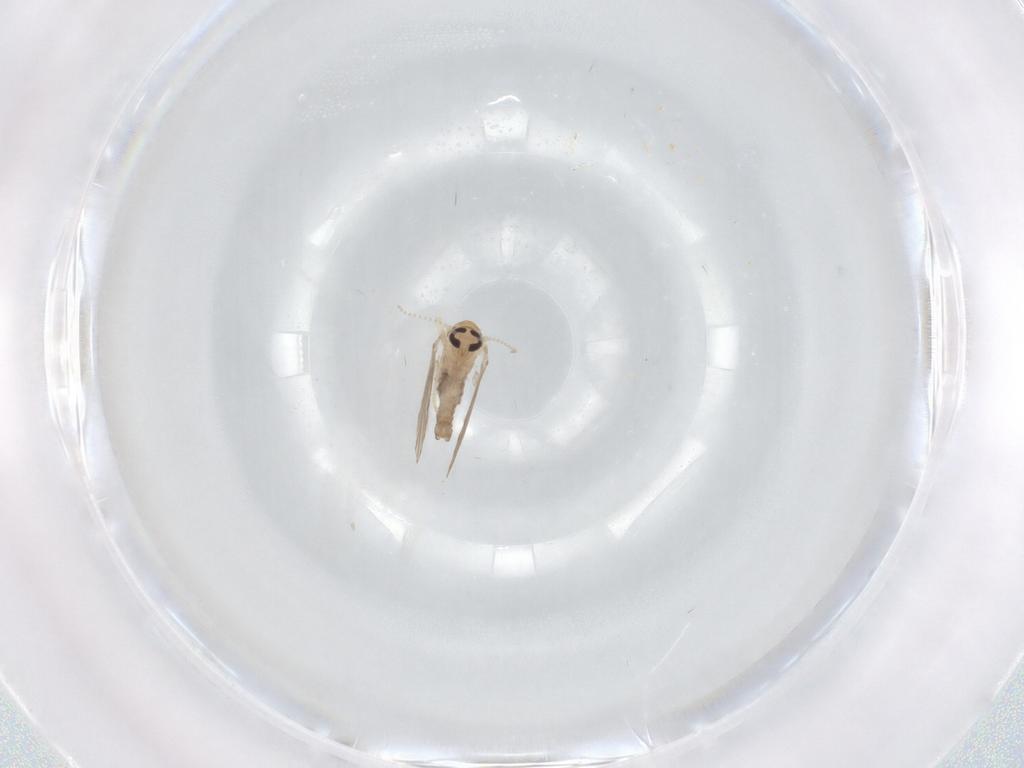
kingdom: Animalia
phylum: Arthropoda
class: Insecta
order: Diptera
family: Psychodidae
